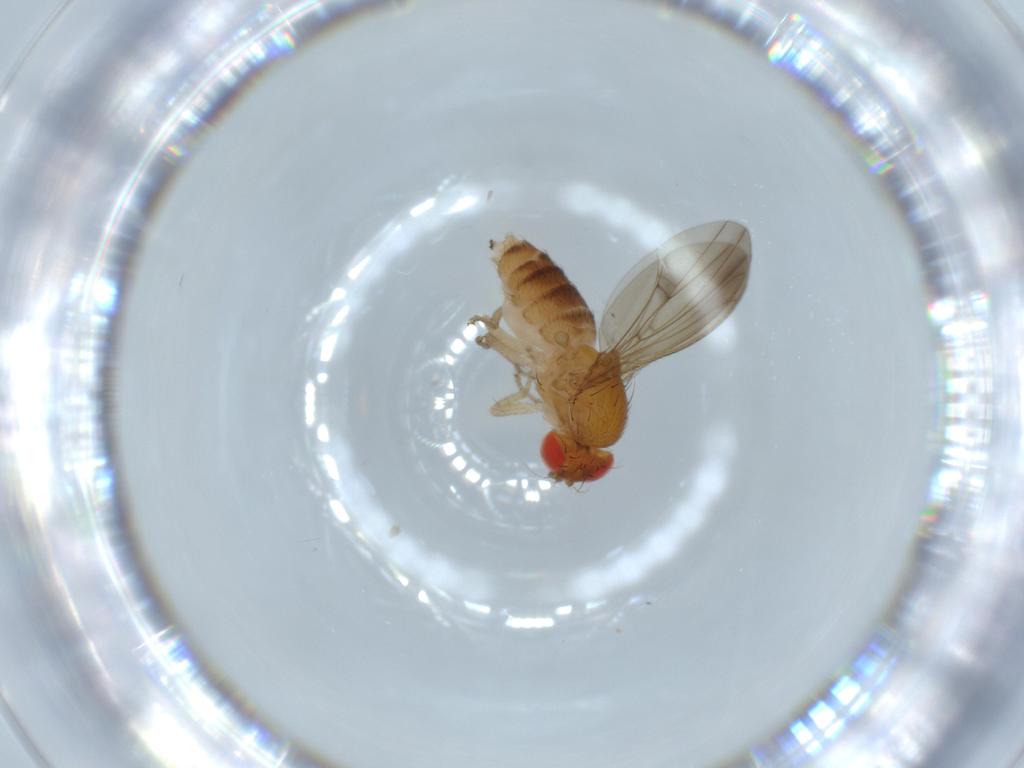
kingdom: Animalia
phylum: Arthropoda
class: Insecta
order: Diptera
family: Drosophilidae
